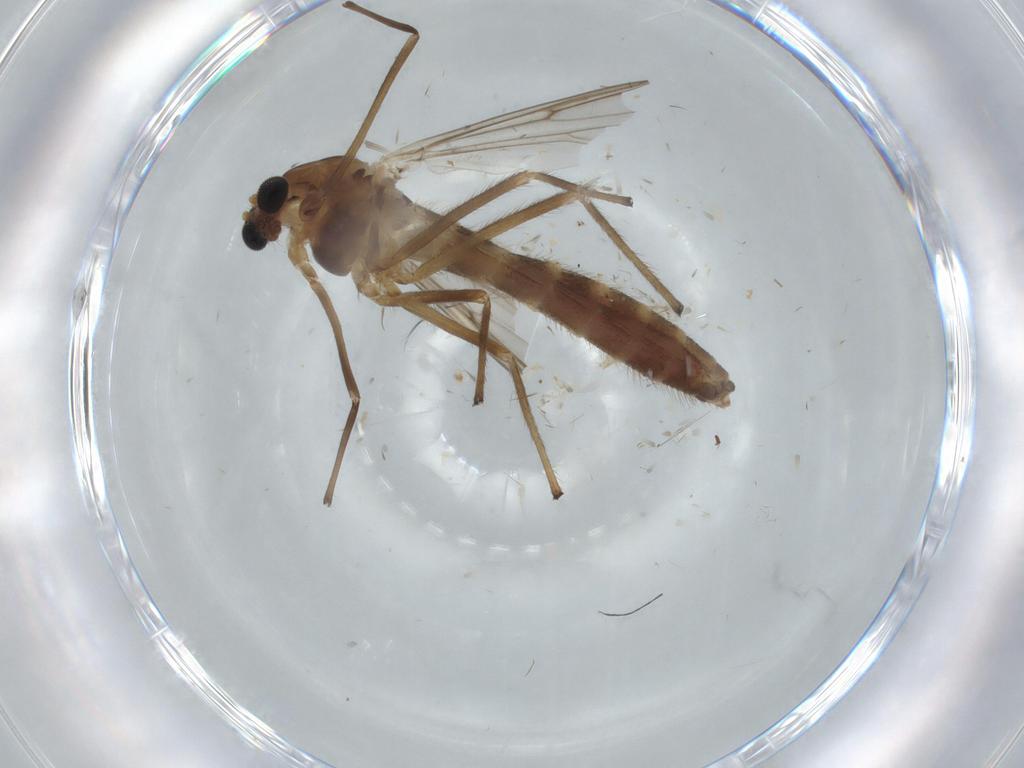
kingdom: Animalia
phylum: Arthropoda
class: Insecta
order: Diptera
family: Chironomidae
